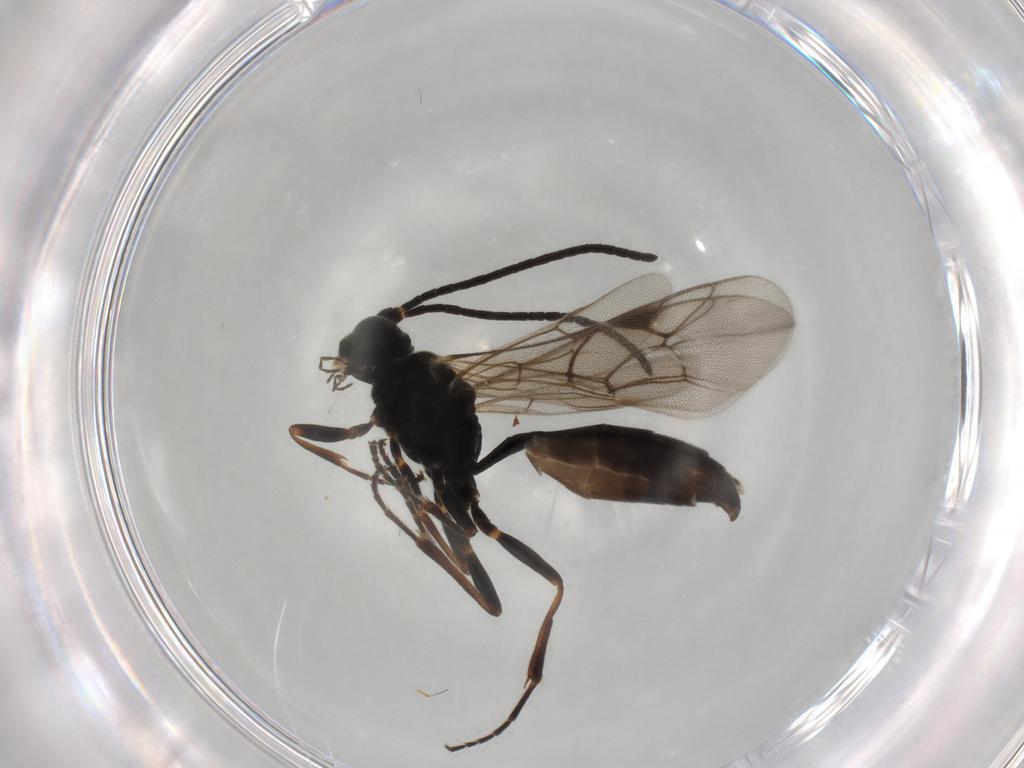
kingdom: Animalia
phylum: Arthropoda
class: Insecta
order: Hymenoptera
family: Ichneumonidae
